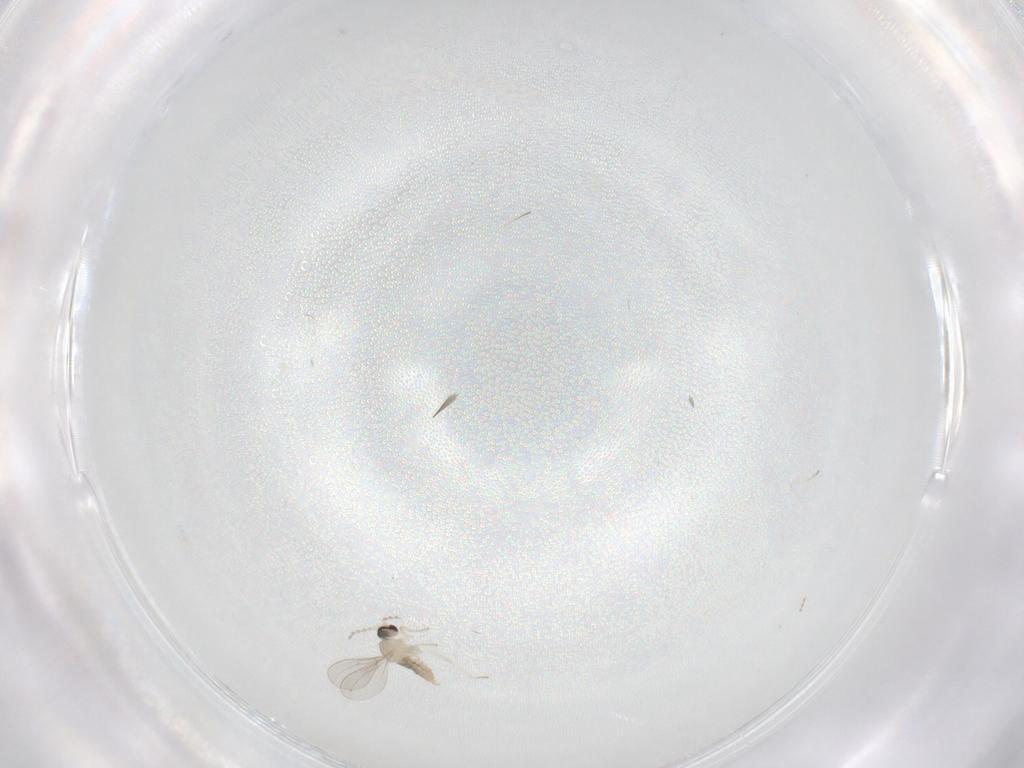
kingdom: Animalia
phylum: Arthropoda
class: Insecta
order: Diptera
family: Cecidomyiidae
